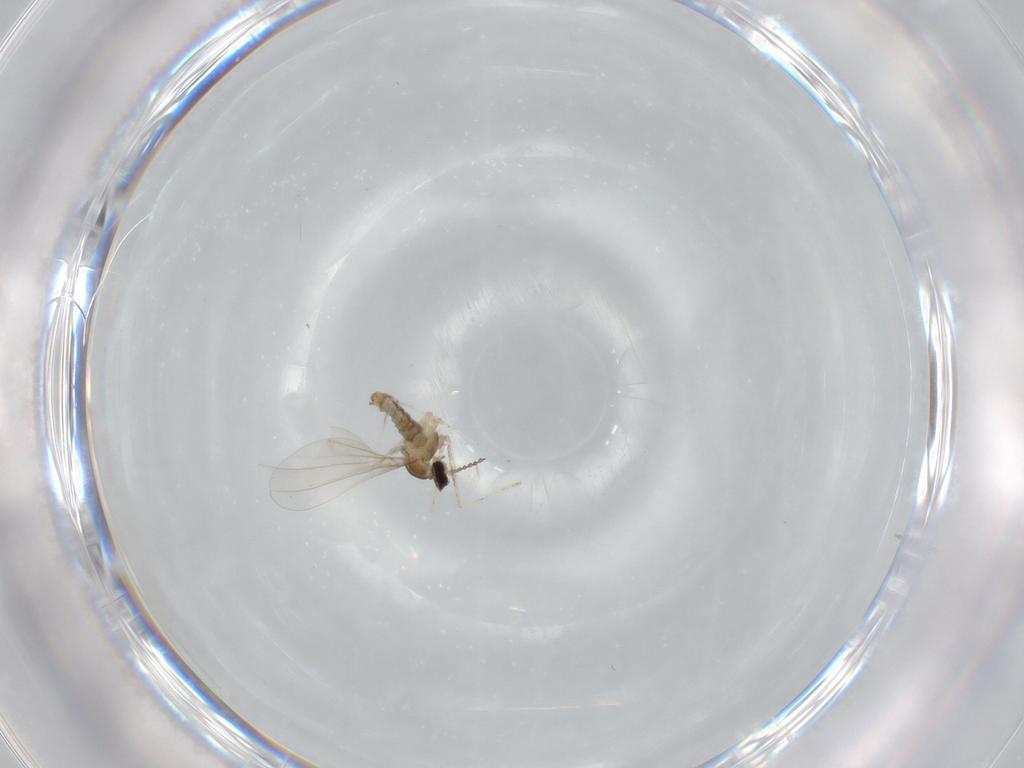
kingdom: Animalia
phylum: Arthropoda
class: Insecta
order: Diptera
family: Cecidomyiidae
